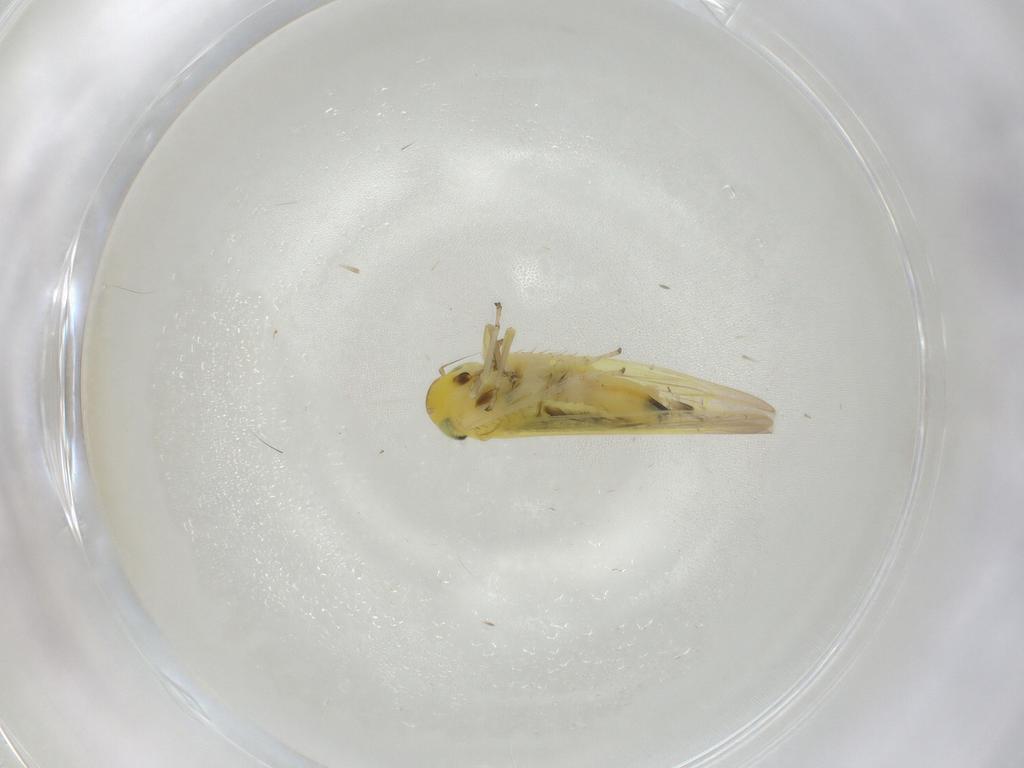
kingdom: Animalia
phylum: Arthropoda
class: Insecta
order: Hemiptera
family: Cicadellidae
